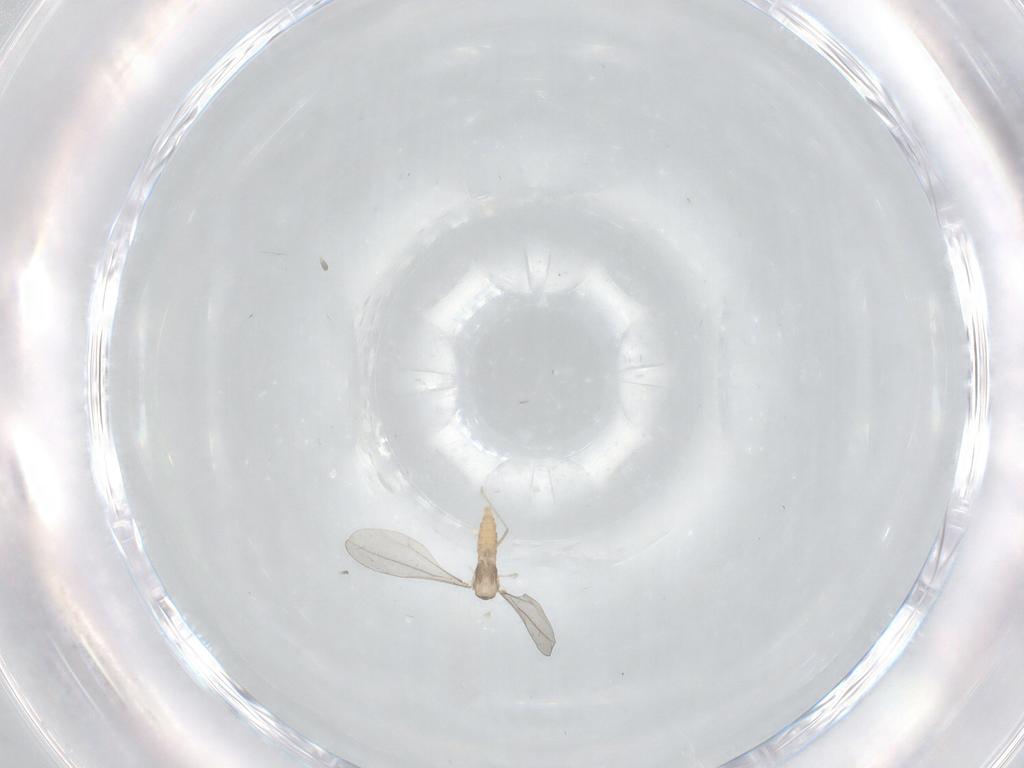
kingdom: Animalia
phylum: Arthropoda
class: Insecta
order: Diptera
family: Cecidomyiidae
